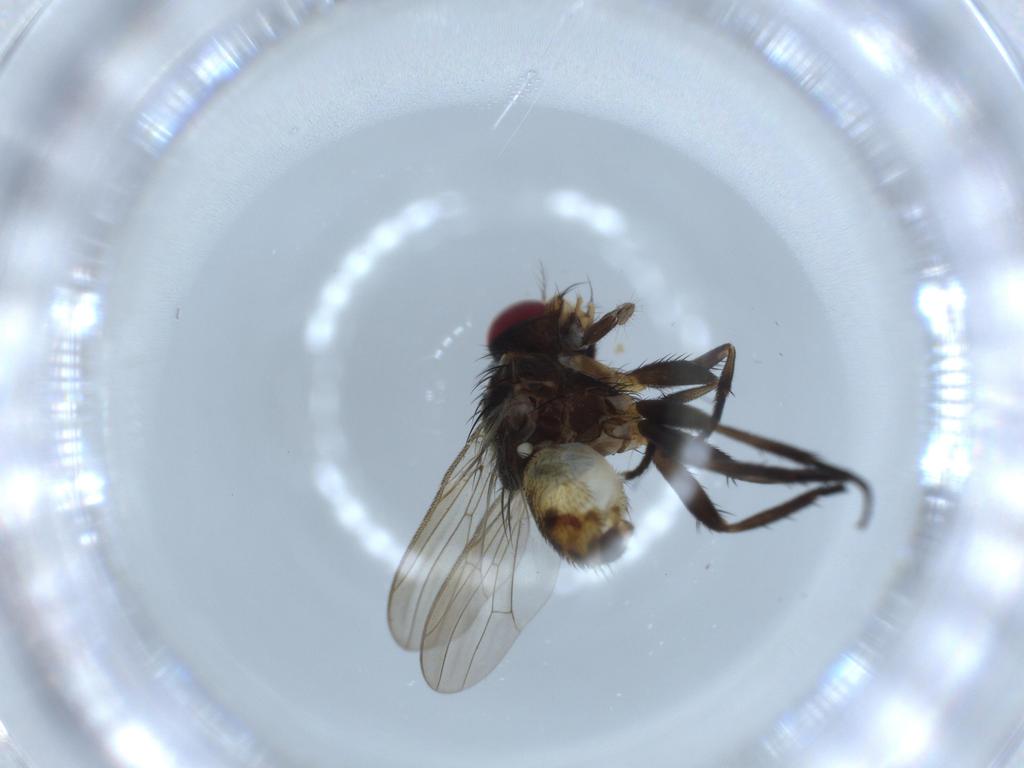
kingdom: Animalia
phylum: Arthropoda
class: Insecta
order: Diptera
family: Anthomyiidae
